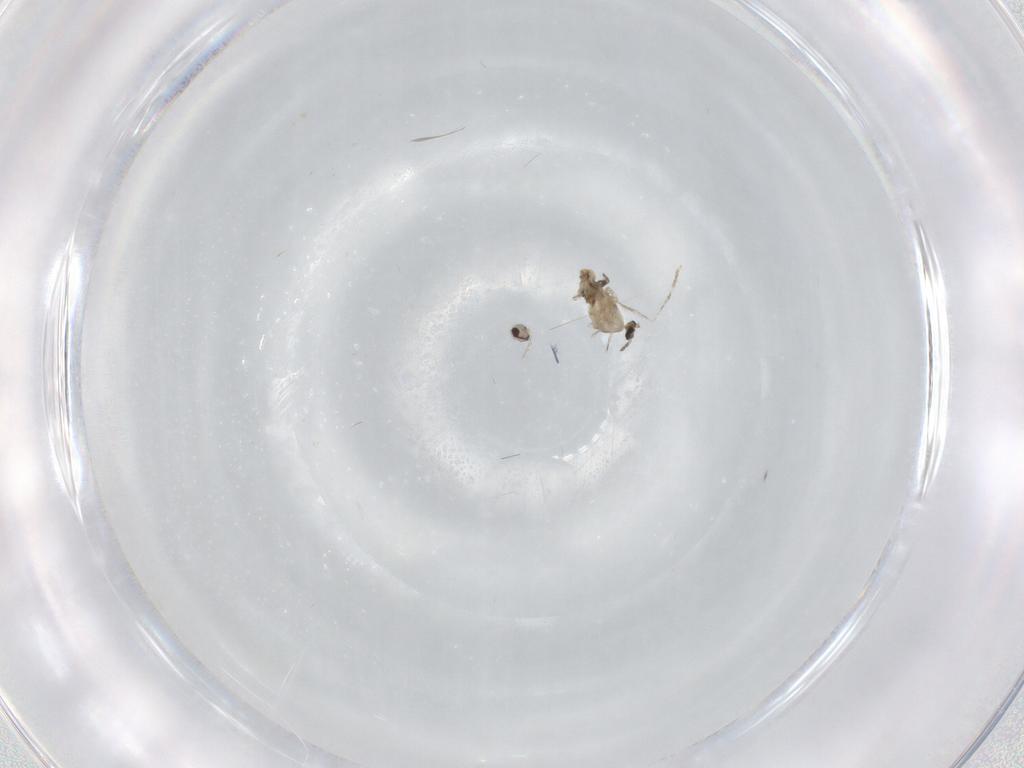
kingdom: Animalia
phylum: Arthropoda
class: Insecta
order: Diptera
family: Cecidomyiidae
